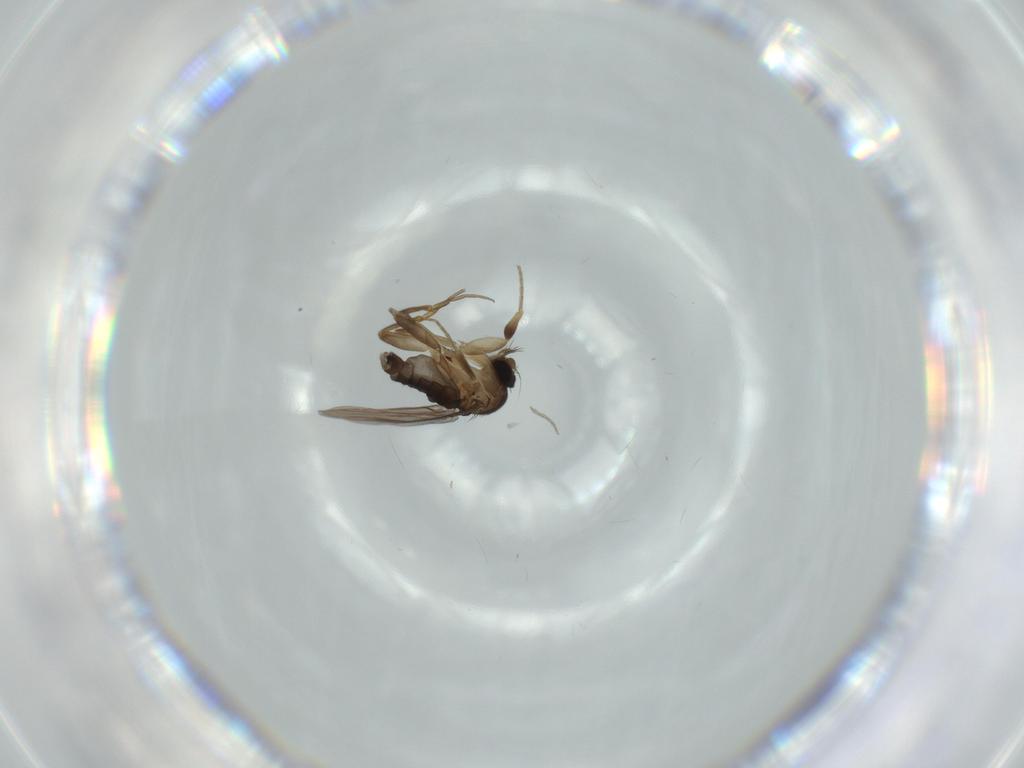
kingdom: Animalia
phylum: Arthropoda
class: Insecta
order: Diptera
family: Phoridae
